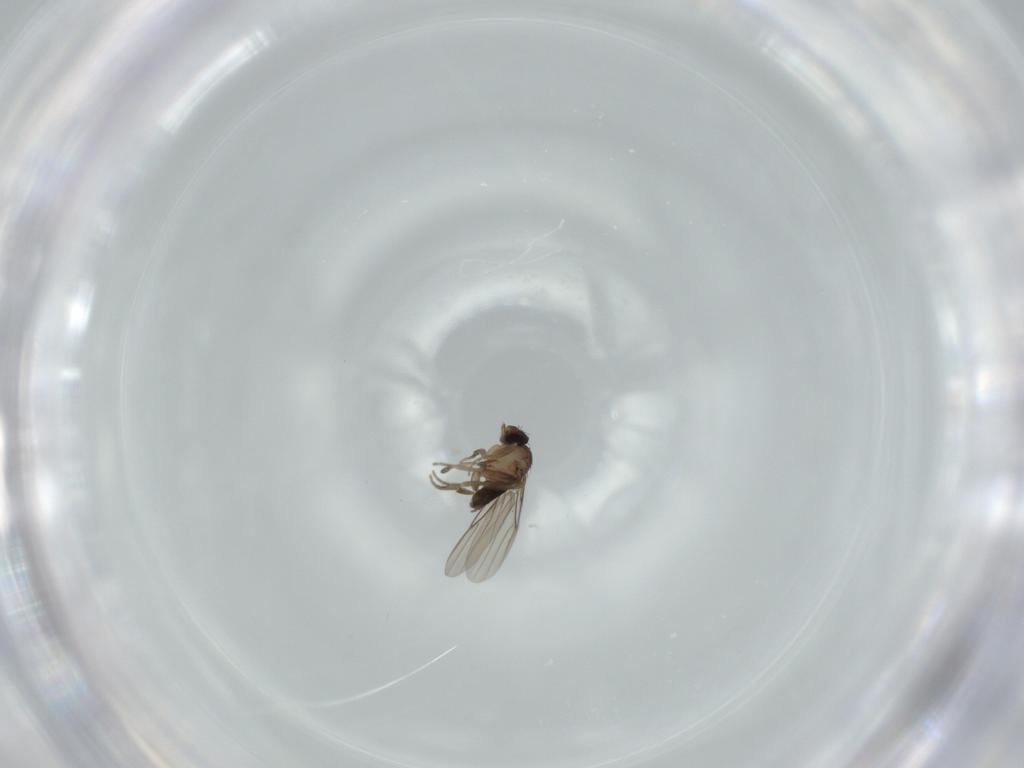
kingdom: Animalia
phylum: Arthropoda
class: Insecta
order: Diptera
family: Phoridae
